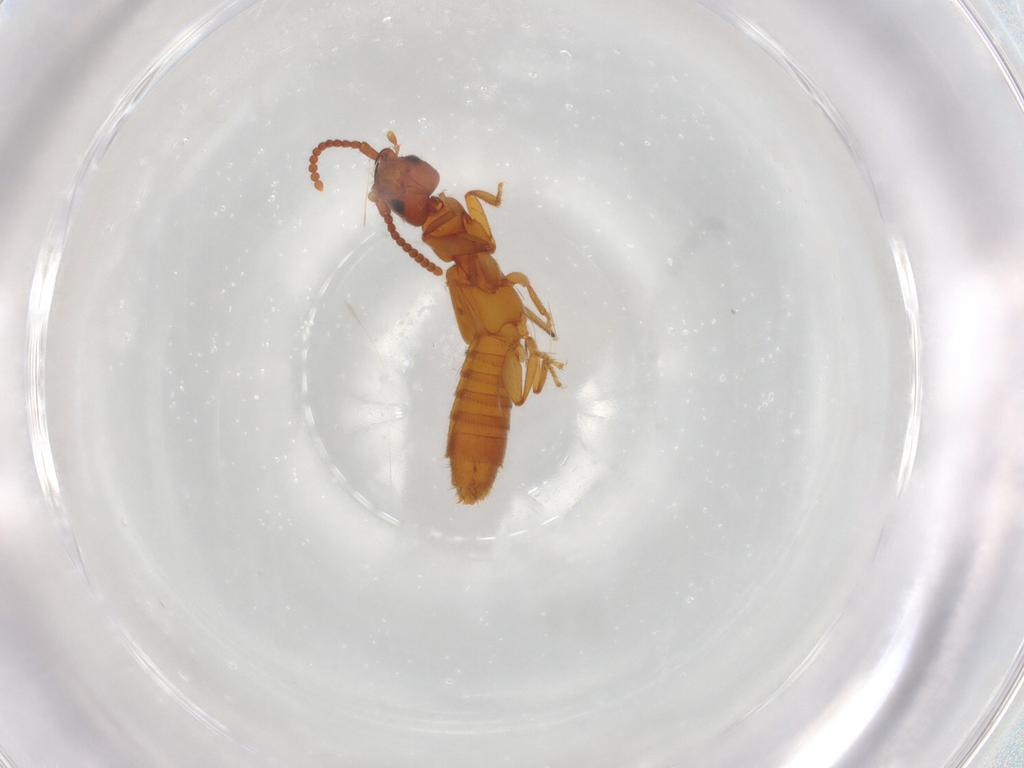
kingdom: Animalia
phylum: Arthropoda
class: Insecta
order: Coleoptera
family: Staphylinidae
